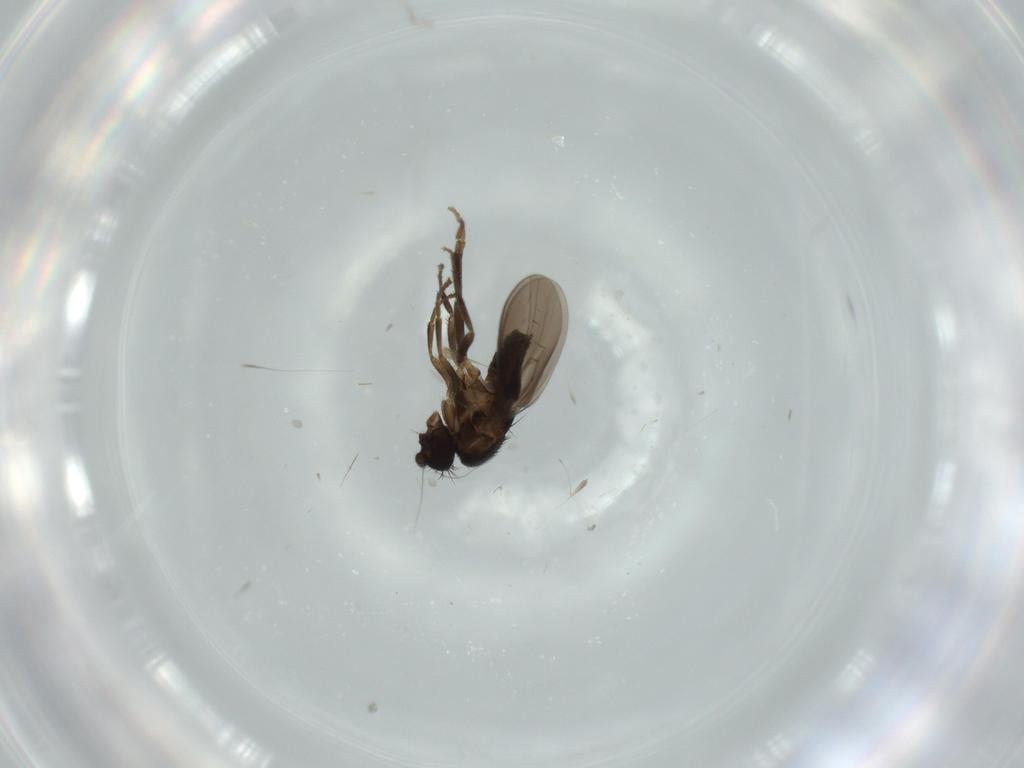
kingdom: Animalia
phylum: Arthropoda
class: Insecta
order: Diptera
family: Sphaeroceridae
